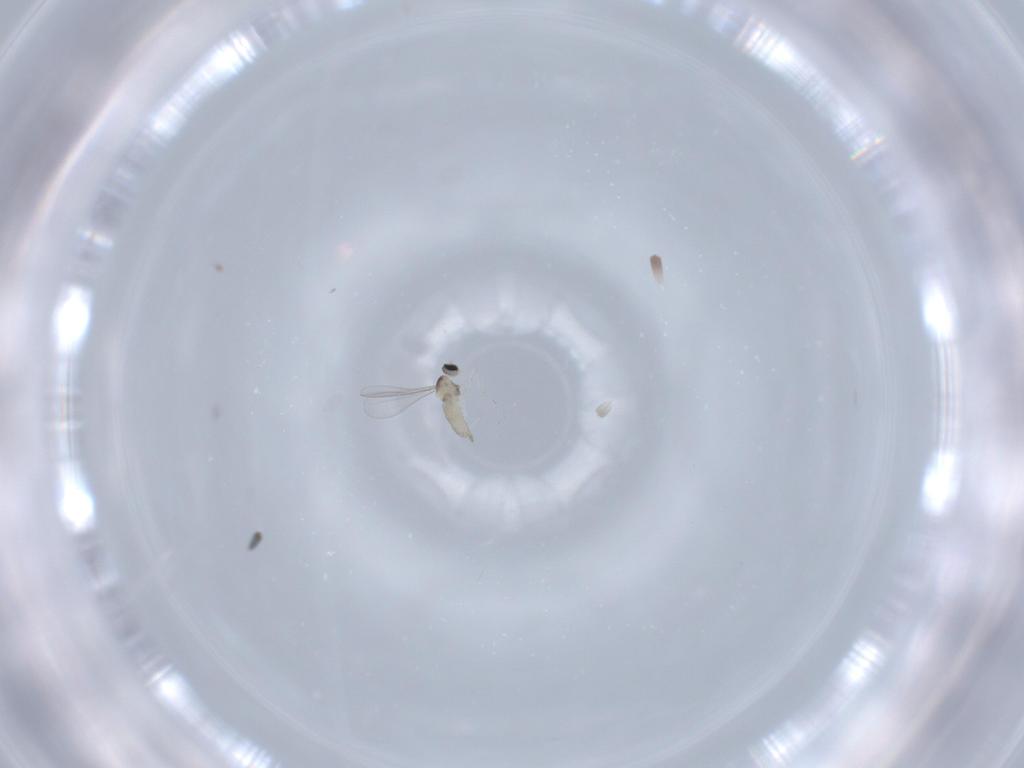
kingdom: Animalia
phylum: Arthropoda
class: Insecta
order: Diptera
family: Cecidomyiidae
